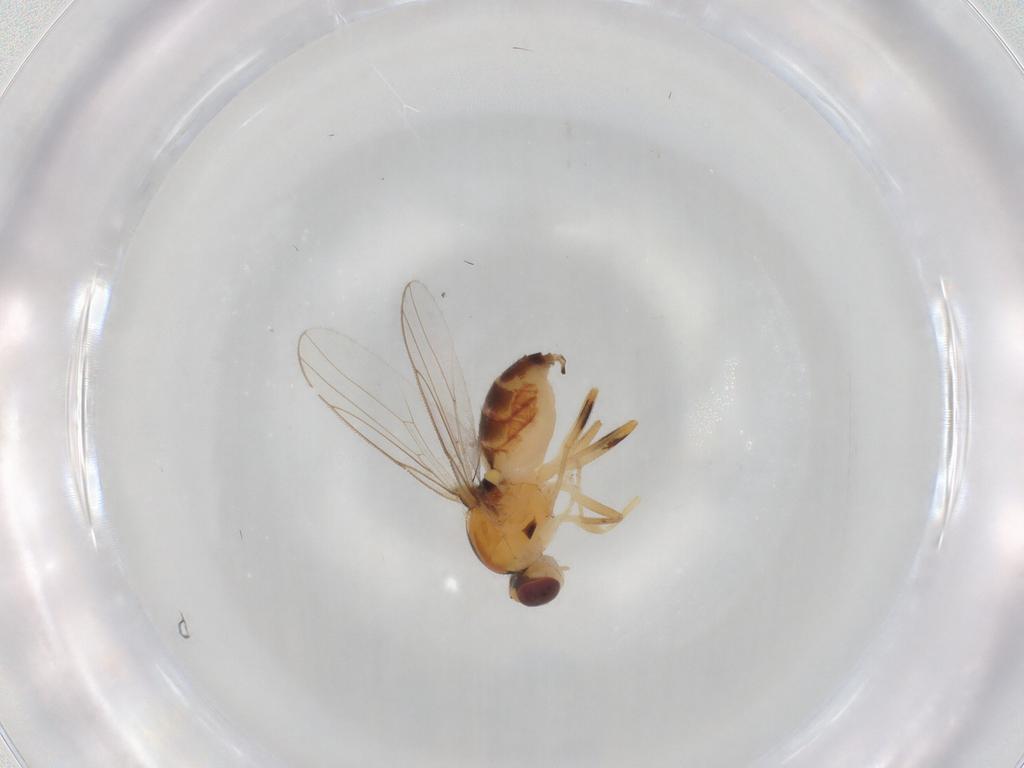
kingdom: Animalia
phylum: Arthropoda
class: Insecta
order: Diptera
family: Chloropidae
